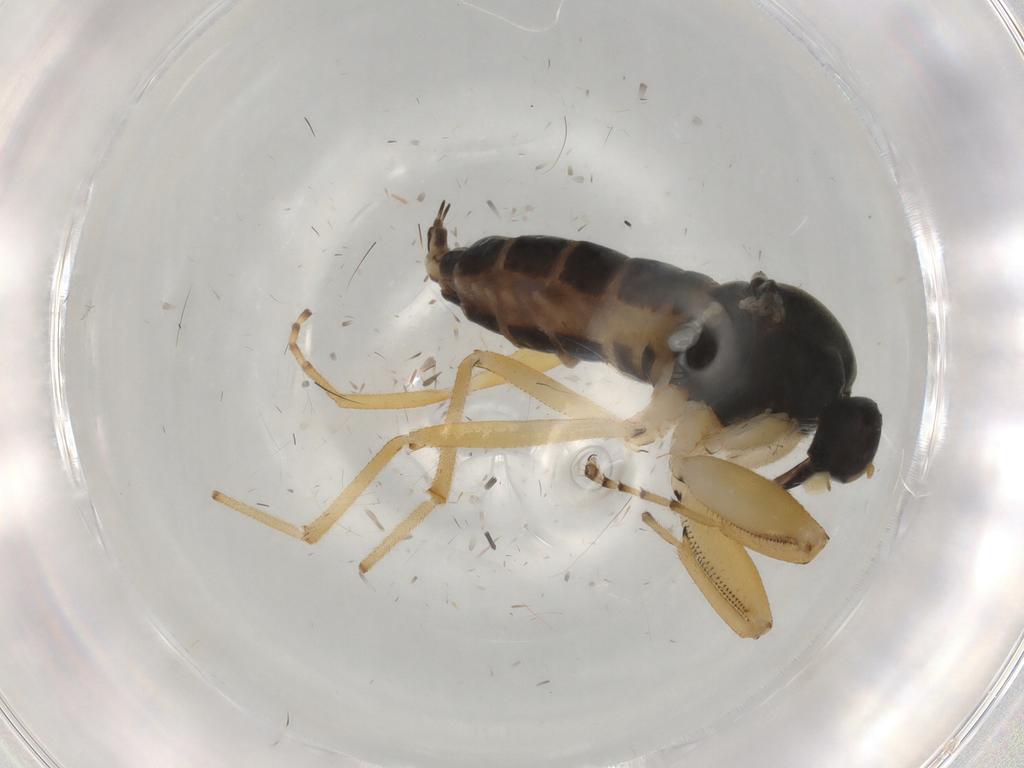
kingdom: Animalia
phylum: Arthropoda
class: Insecta
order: Diptera
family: Hybotidae
